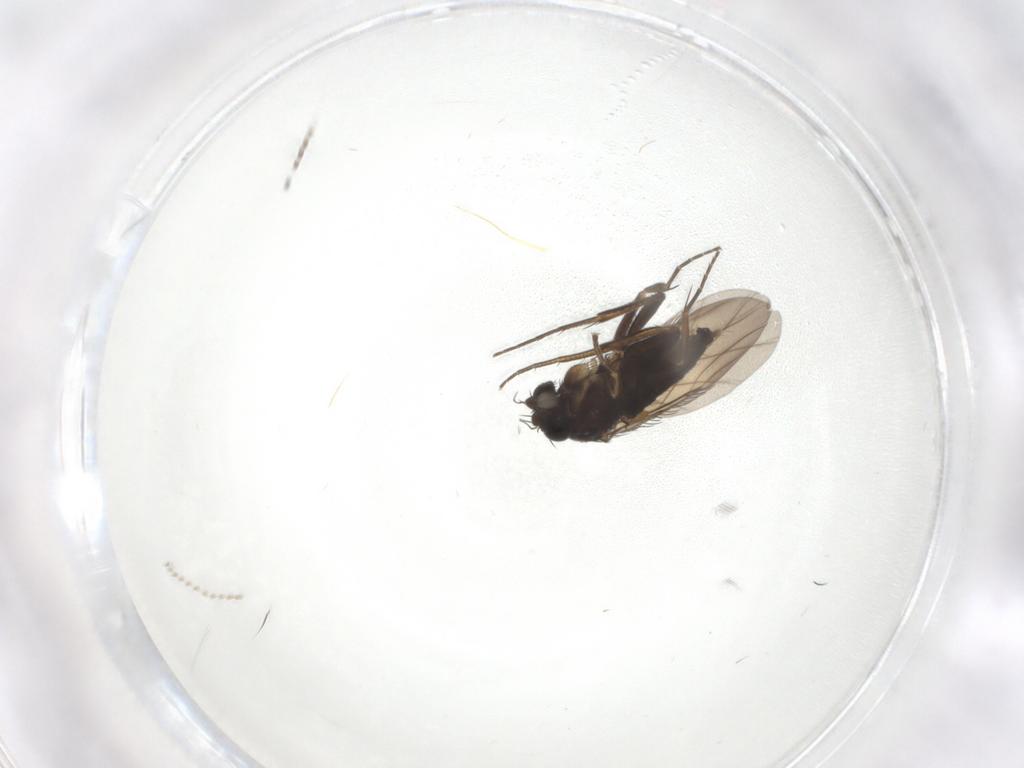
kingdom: Animalia
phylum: Arthropoda
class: Insecta
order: Diptera
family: Phoridae
